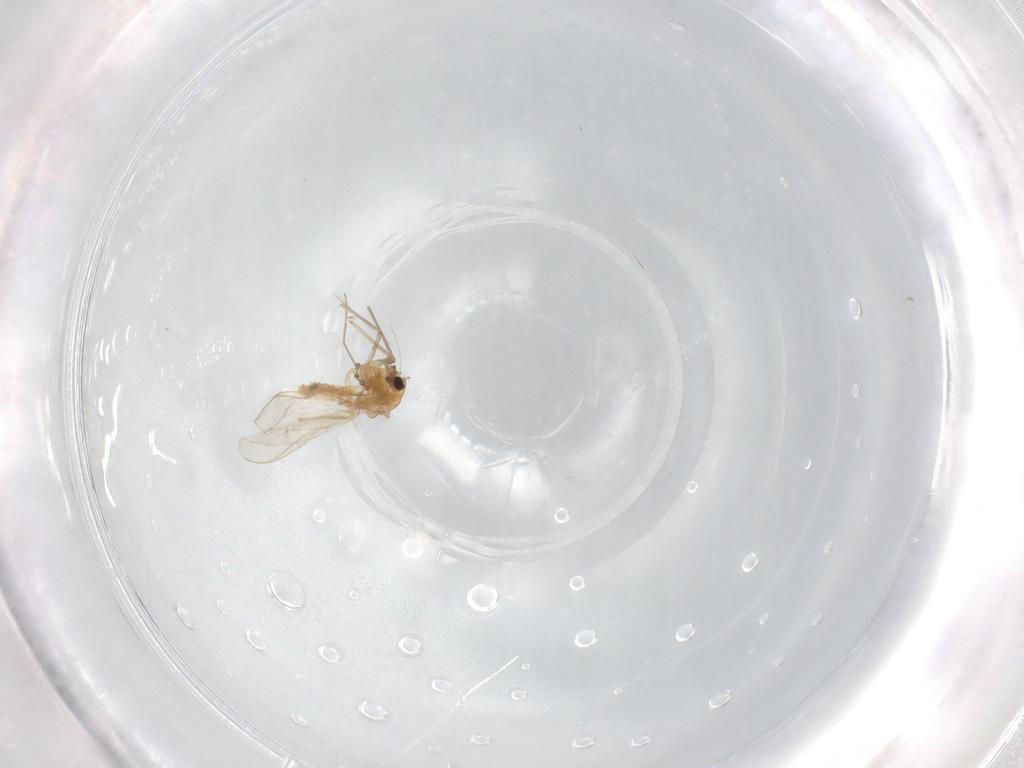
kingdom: Animalia
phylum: Arthropoda
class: Insecta
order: Diptera
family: Chironomidae
